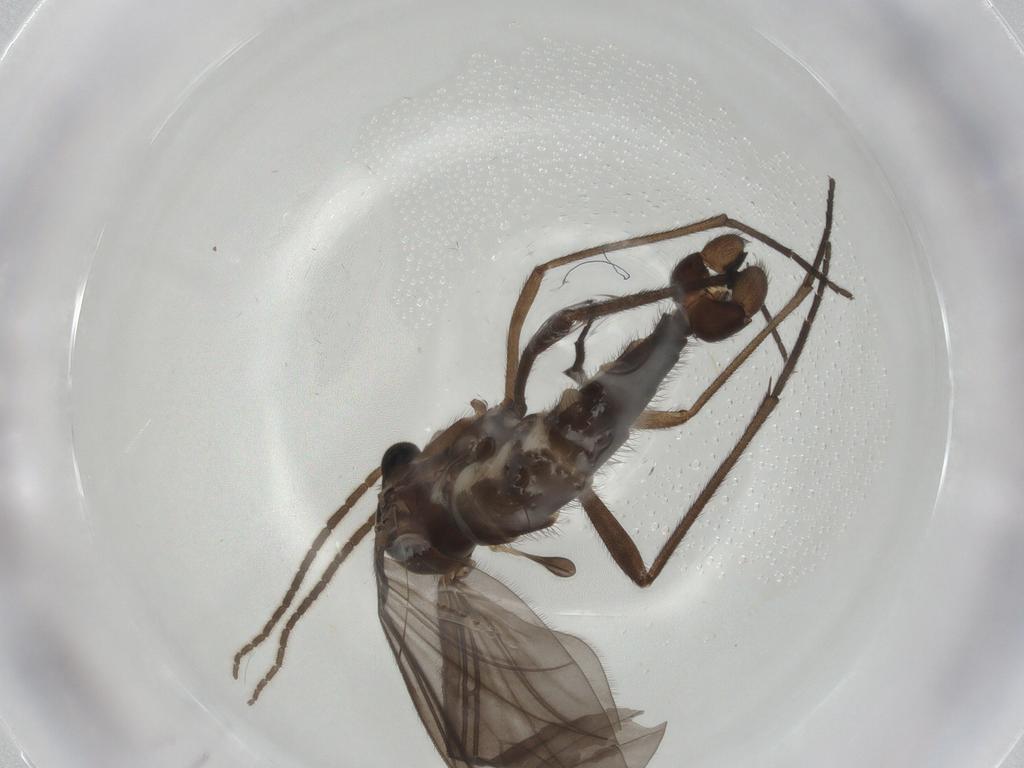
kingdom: Animalia
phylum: Arthropoda
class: Insecta
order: Diptera
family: Sciaridae
